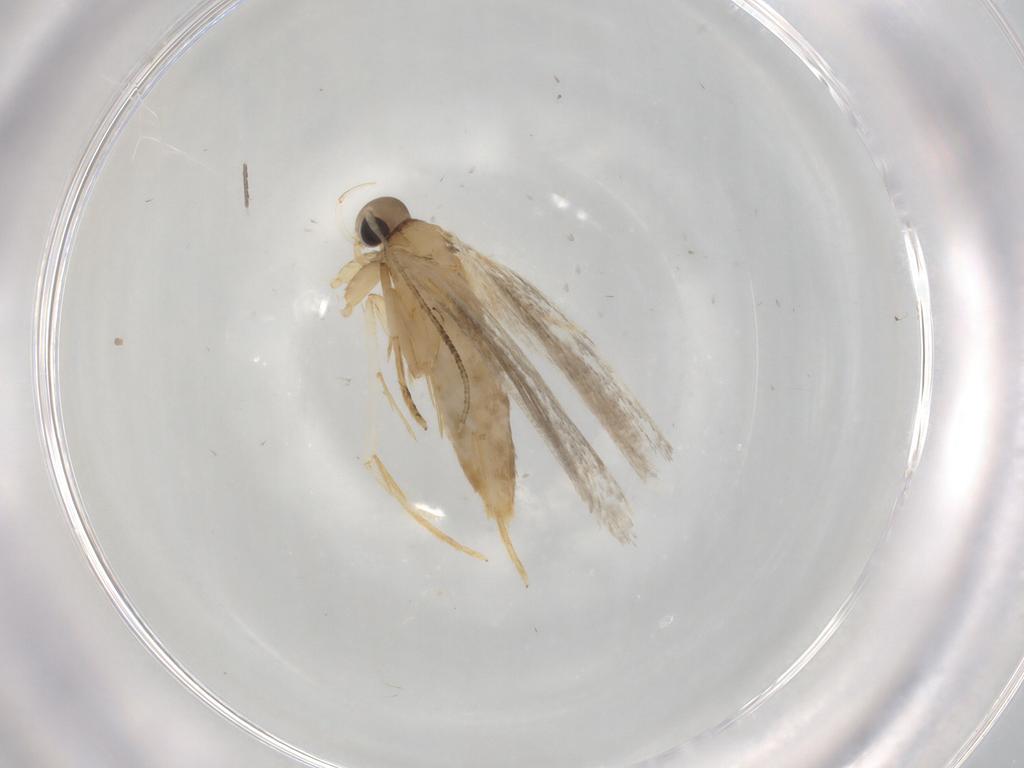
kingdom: Animalia
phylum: Arthropoda
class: Insecta
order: Lepidoptera
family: Autostichidae
